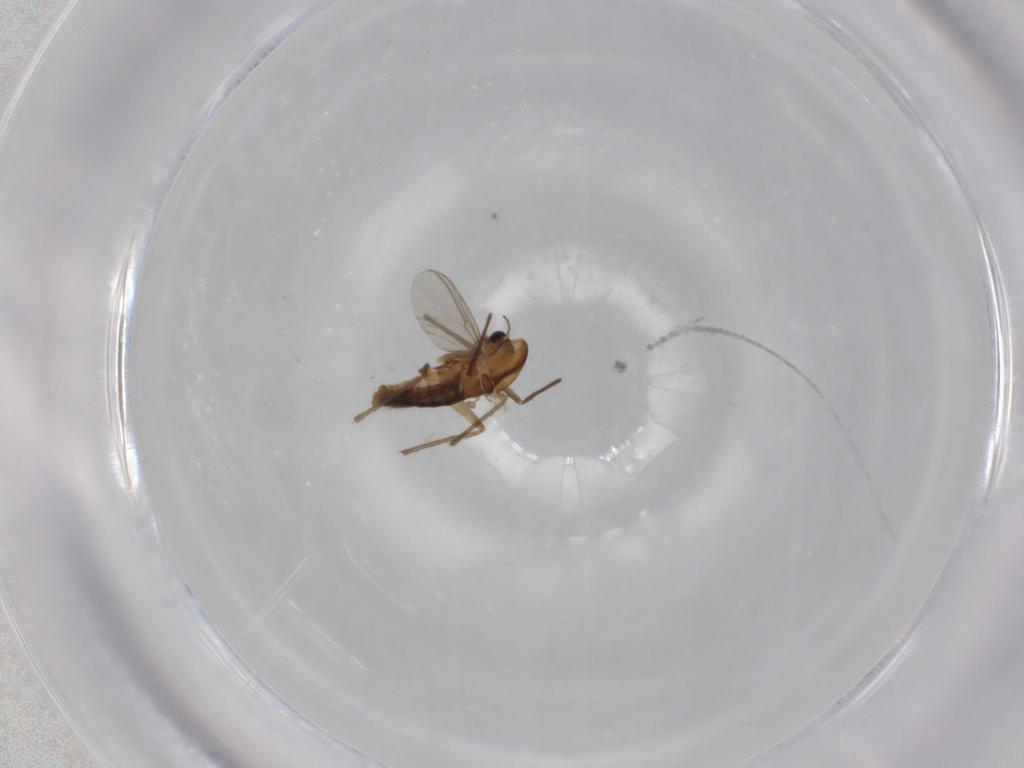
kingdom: Animalia
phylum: Arthropoda
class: Insecta
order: Diptera
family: Chironomidae
